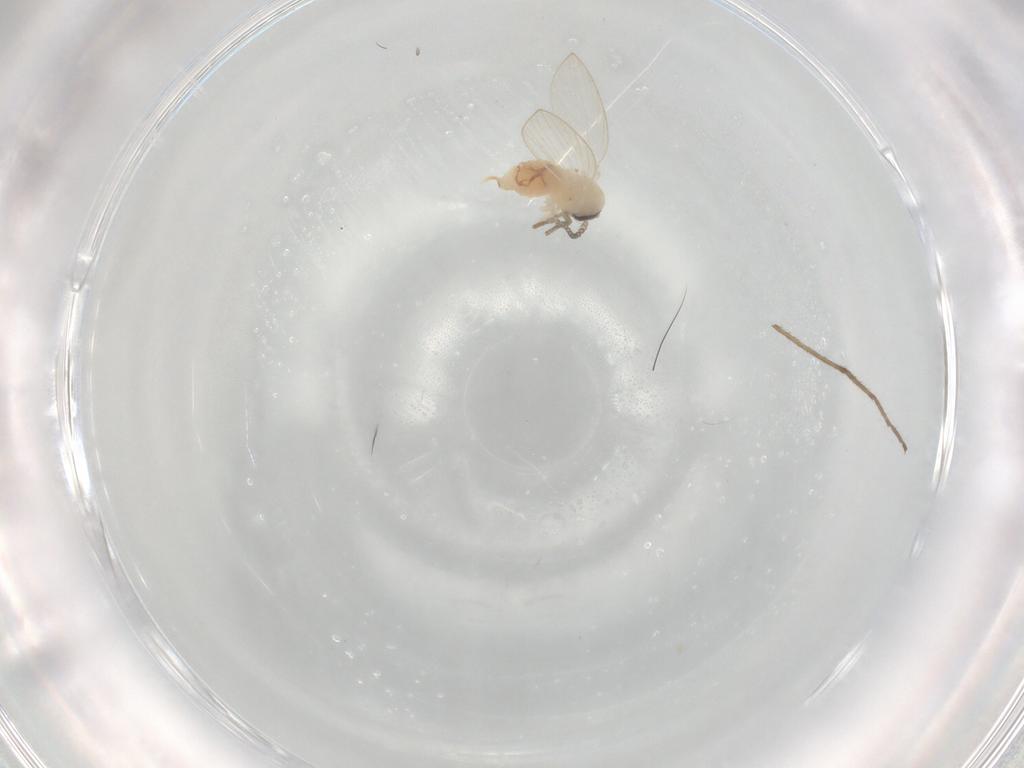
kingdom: Animalia
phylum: Arthropoda
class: Insecta
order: Diptera
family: Psychodidae
